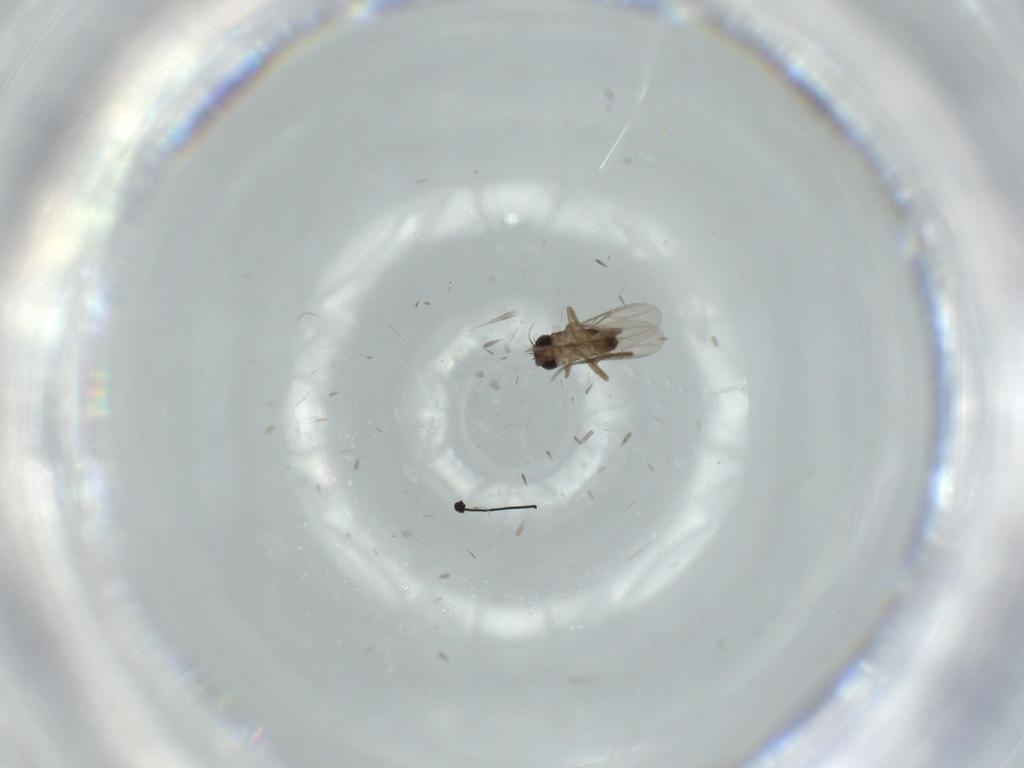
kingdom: Animalia
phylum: Arthropoda
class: Insecta
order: Diptera
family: Phoridae
